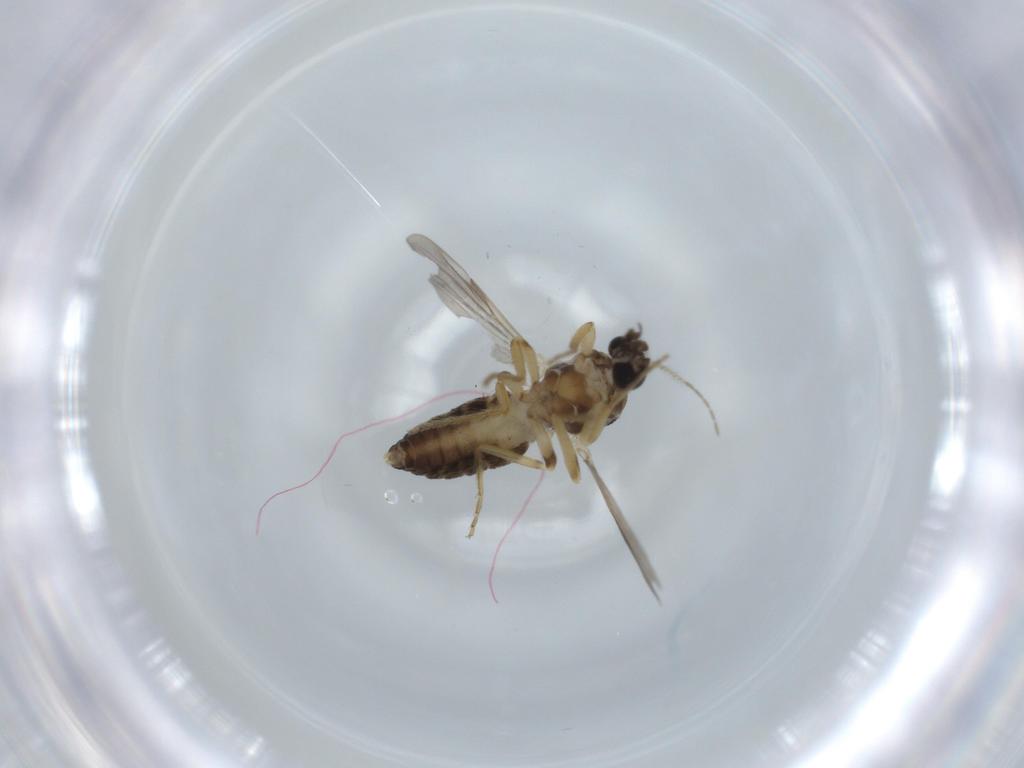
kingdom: Animalia
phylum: Arthropoda
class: Insecta
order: Diptera
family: Ceratopogonidae
